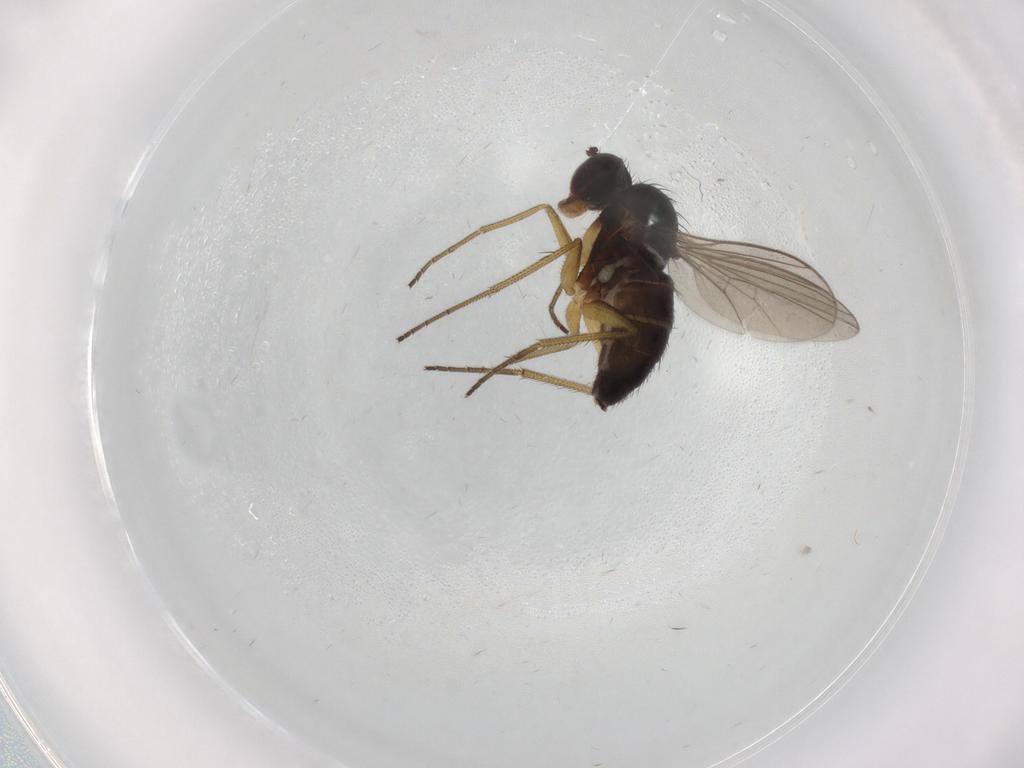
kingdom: Animalia
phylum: Arthropoda
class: Insecta
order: Diptera
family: Dolichopodidae
